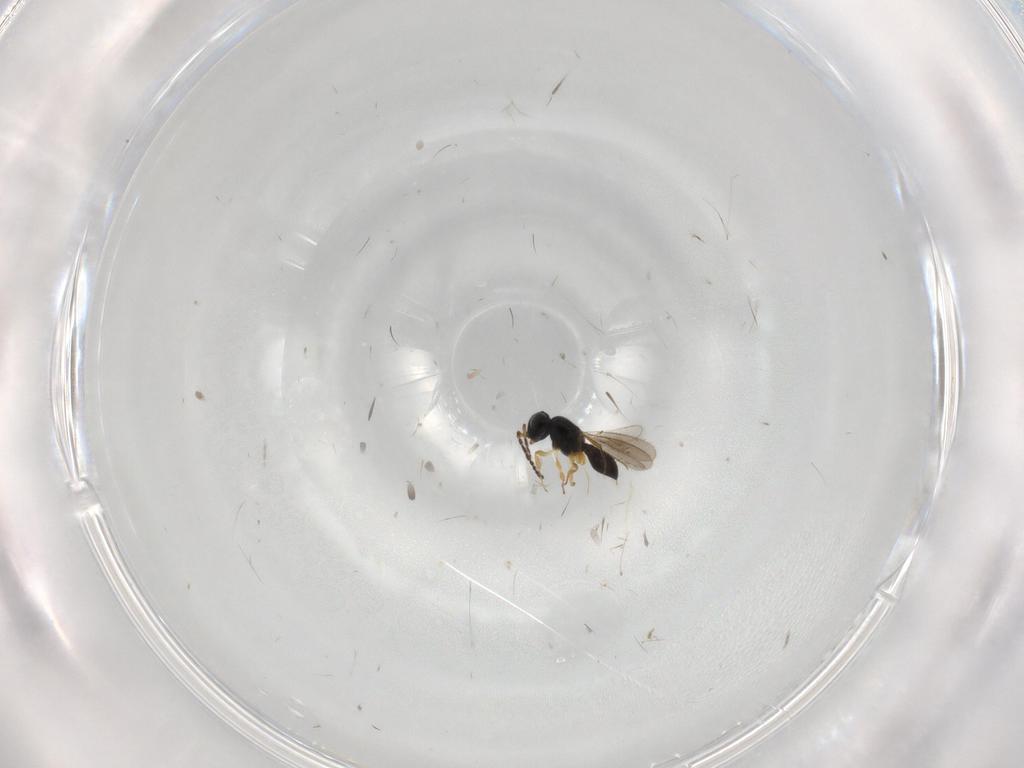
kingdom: Animalia
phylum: Arthropoda
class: Insecta
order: Hymenoptera
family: Scelionidae
